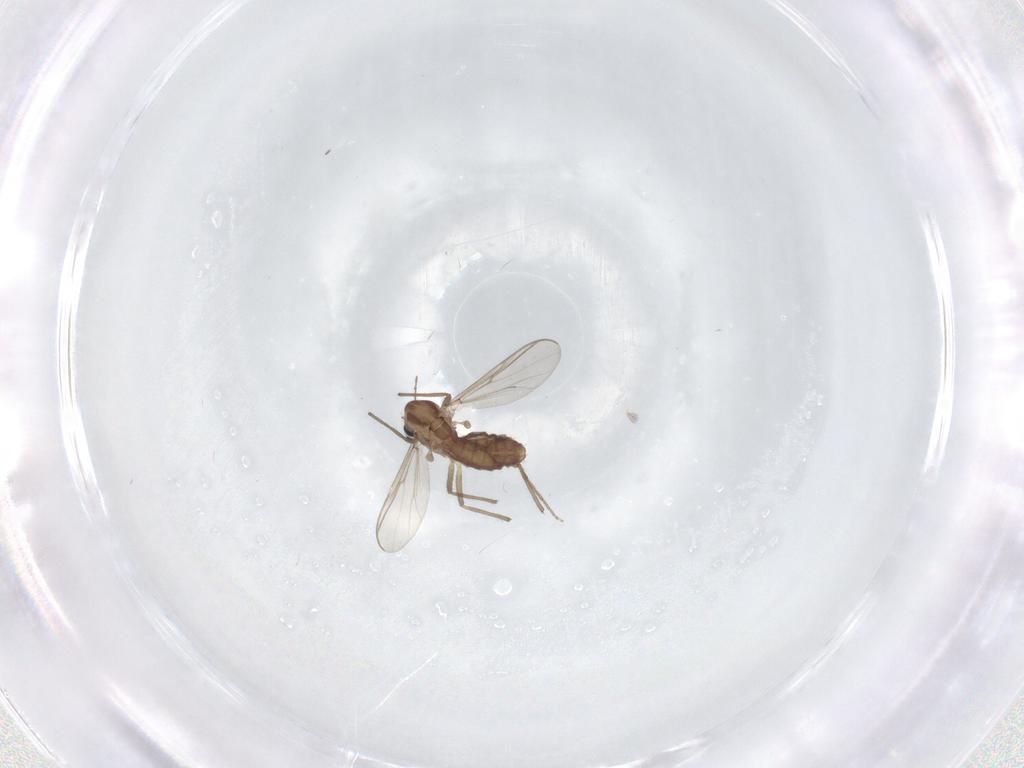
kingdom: Animalia
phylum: Arthropoda
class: Insecta
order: Diptera
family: Chironomidae
